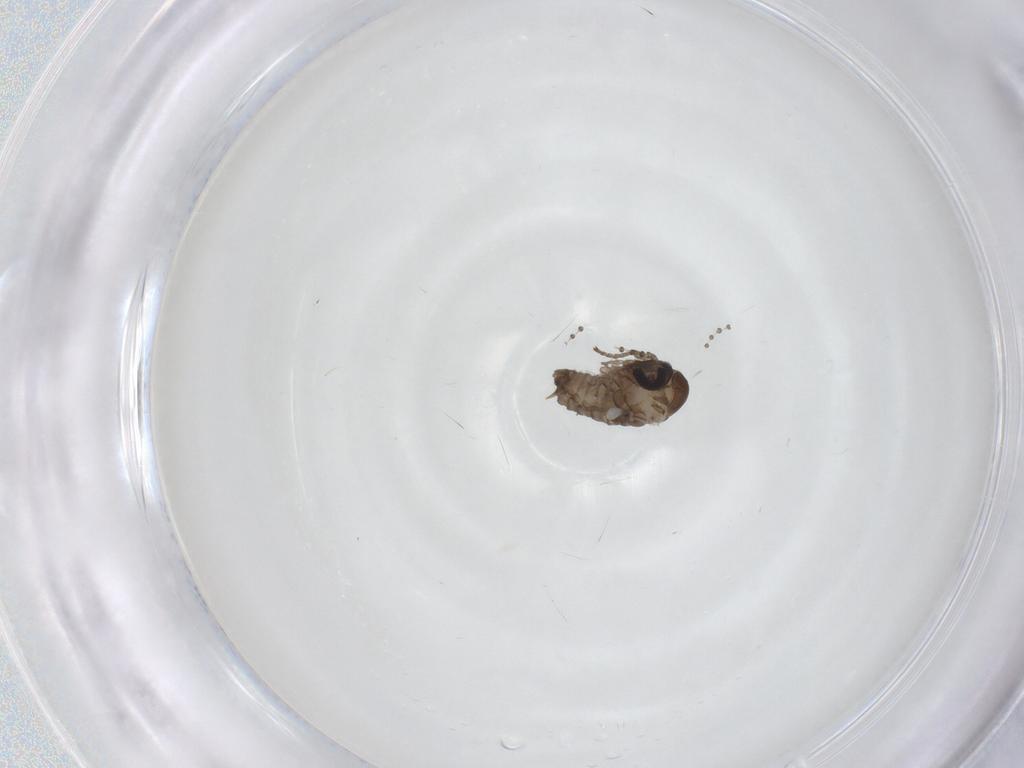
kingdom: Animalia
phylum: Arthropoda
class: Insecta
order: Diptera
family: Psychodidae
